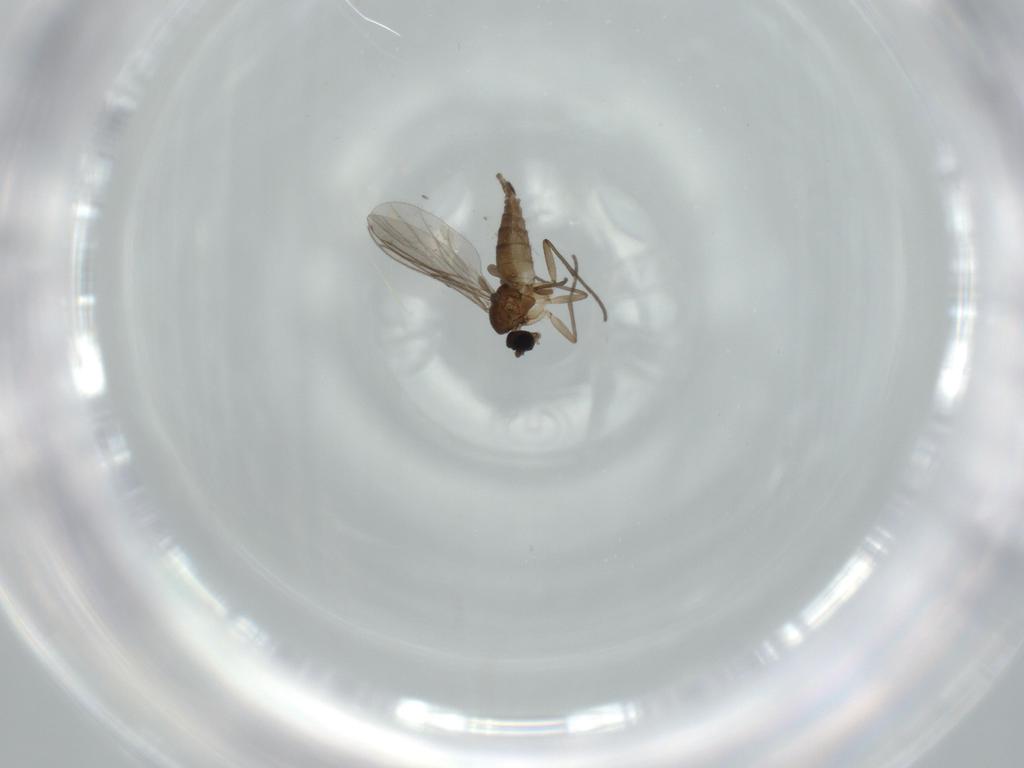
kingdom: Animalia
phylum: Arthropoda
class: Insecta
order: Diptera
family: Sciaridae
